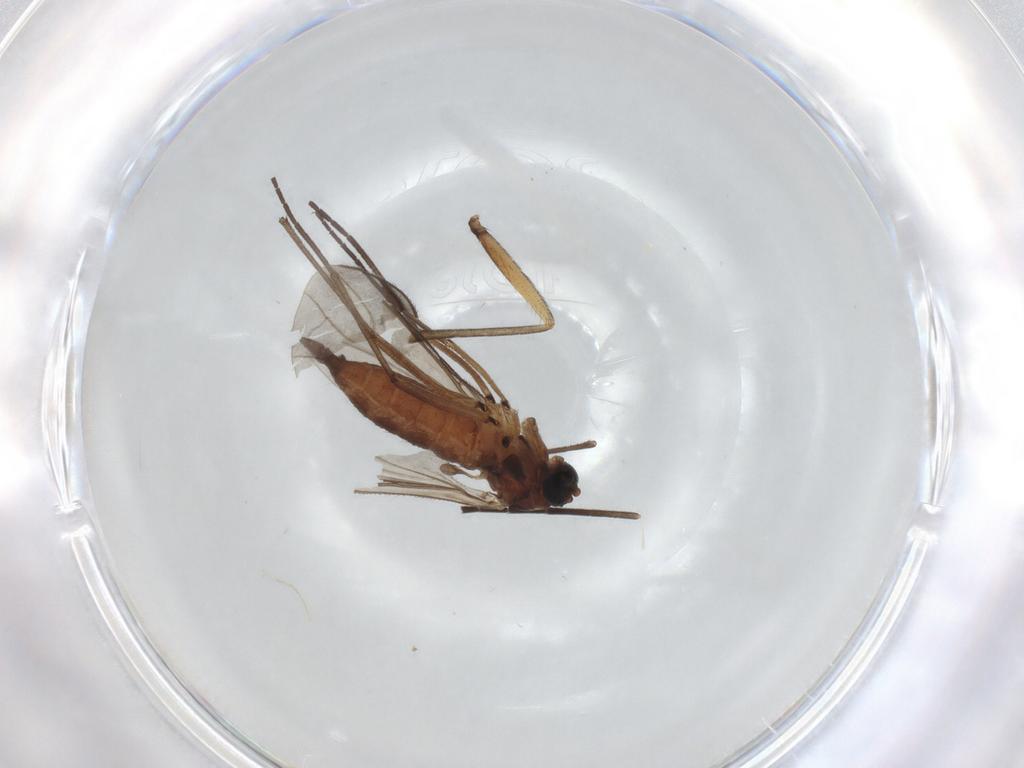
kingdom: Animalia
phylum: Arthropoda
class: Insecta
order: Diptera
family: Sciaridae
